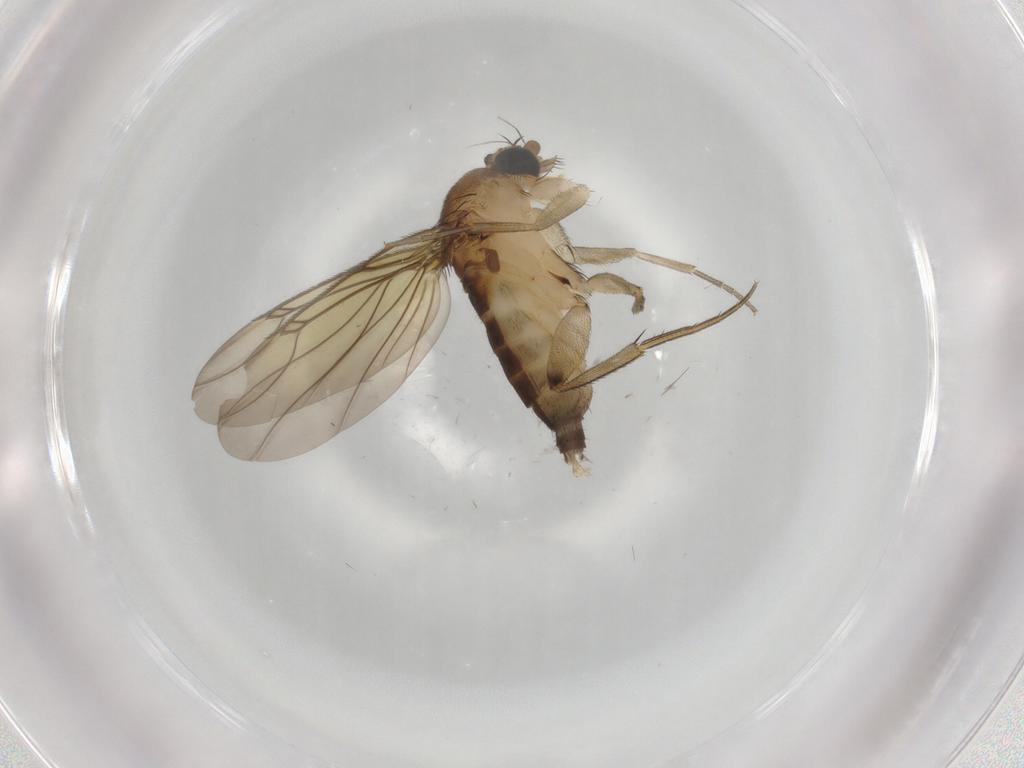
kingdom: Animalia
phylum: Arthropoda
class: Insecta
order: Diptera
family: Phoridae
